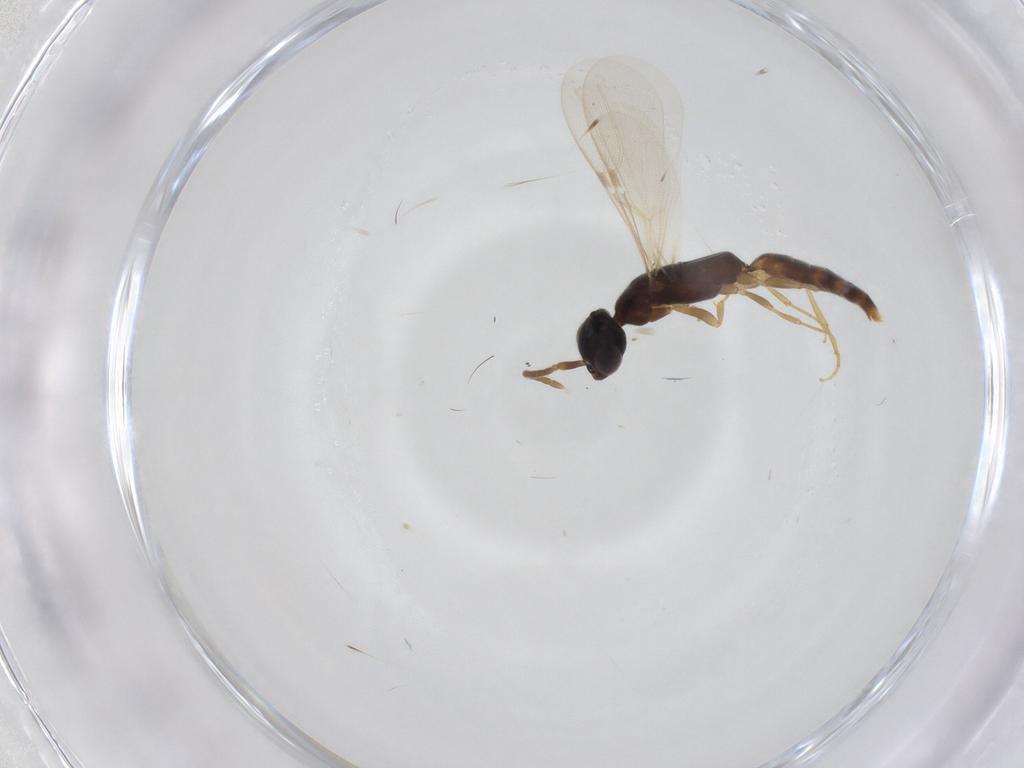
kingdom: Animalia
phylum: Arthropoda
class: Insecta
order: Hymenoptera
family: Bethylidae
